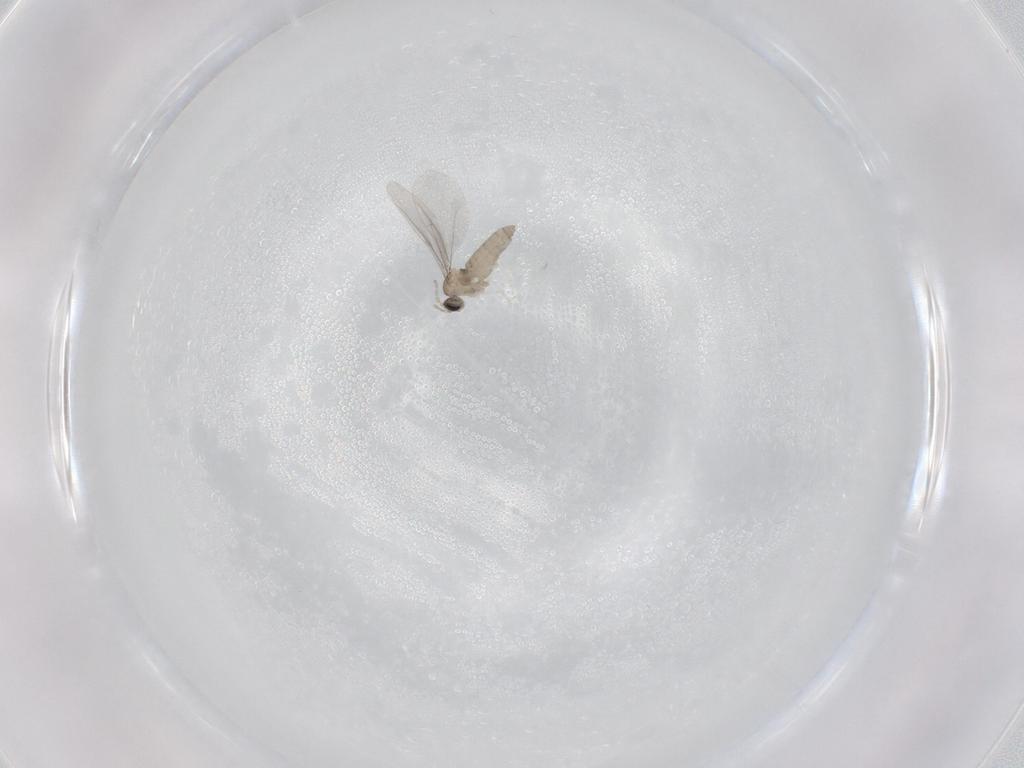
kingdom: Animalia
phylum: Arthropoda
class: Insecta
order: Diptera
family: Cecidomyiidae
